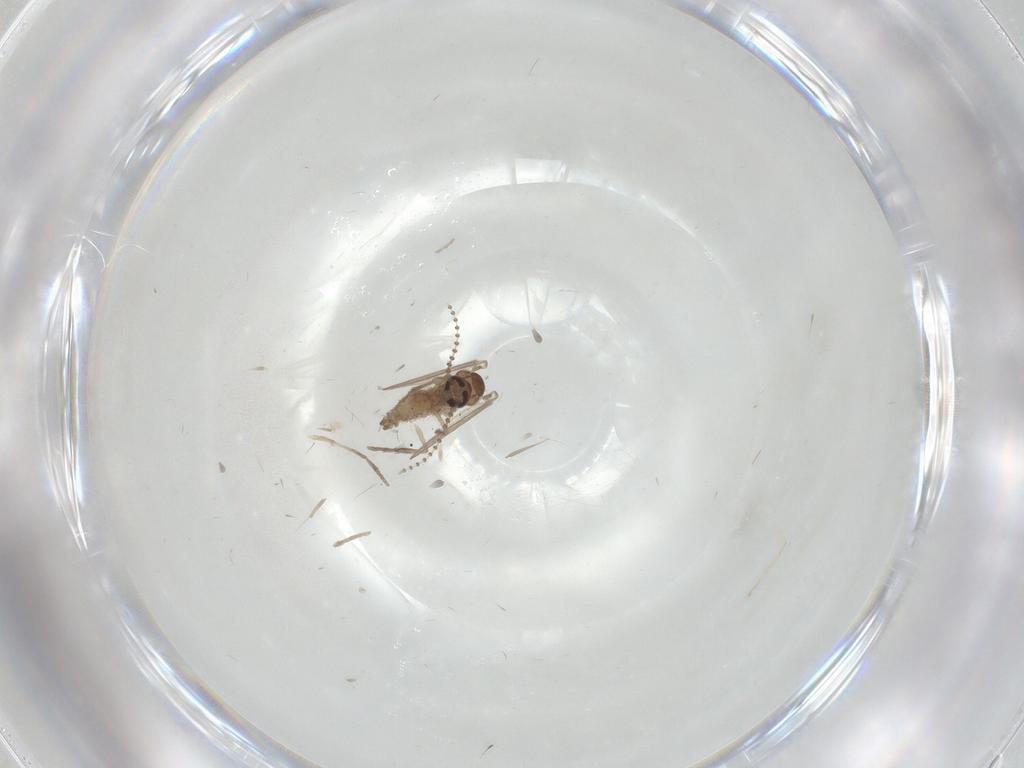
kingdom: Animalia
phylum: Arthropoda
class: Insecta
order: Diptera
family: Psychodidae
